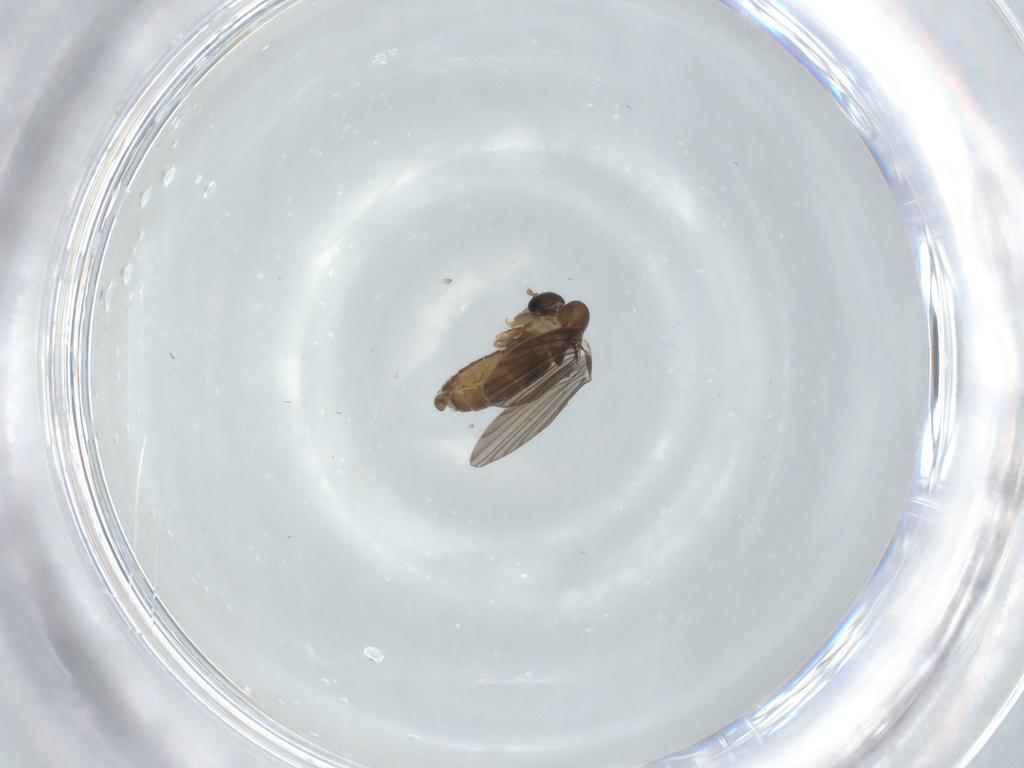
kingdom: Animalia
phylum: Arthropoda
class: Insecta
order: Diptera
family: Psychodidae
